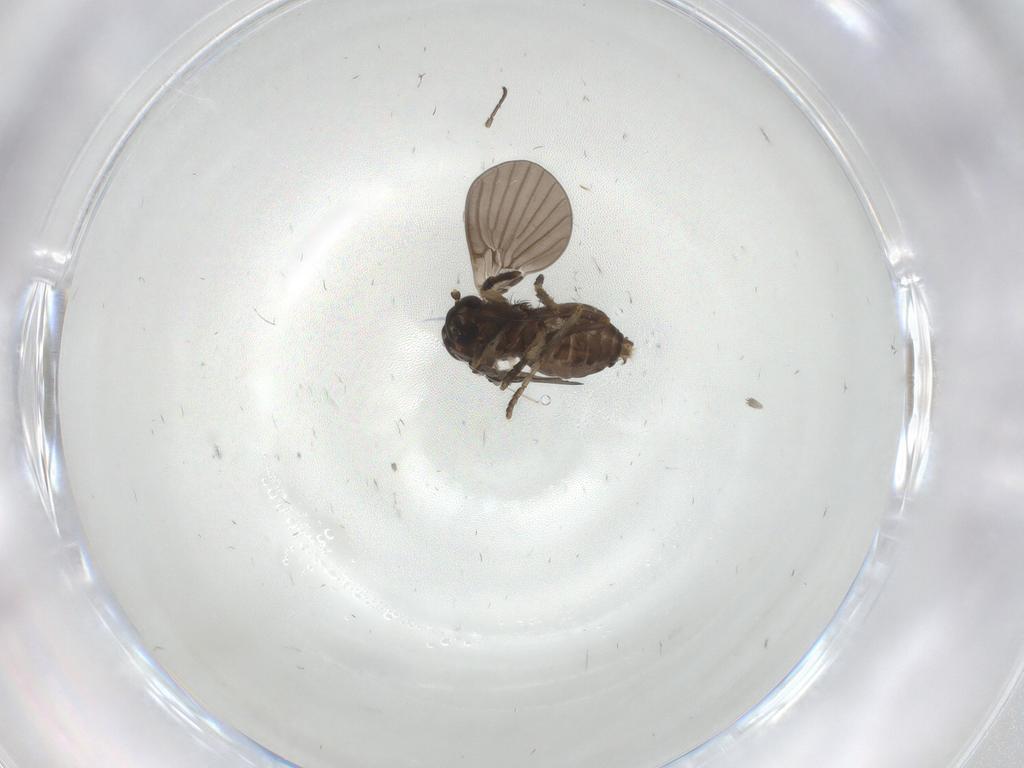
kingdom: Animalia
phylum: Arthropoda
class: Insecta
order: Diptera
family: Psychodidae
